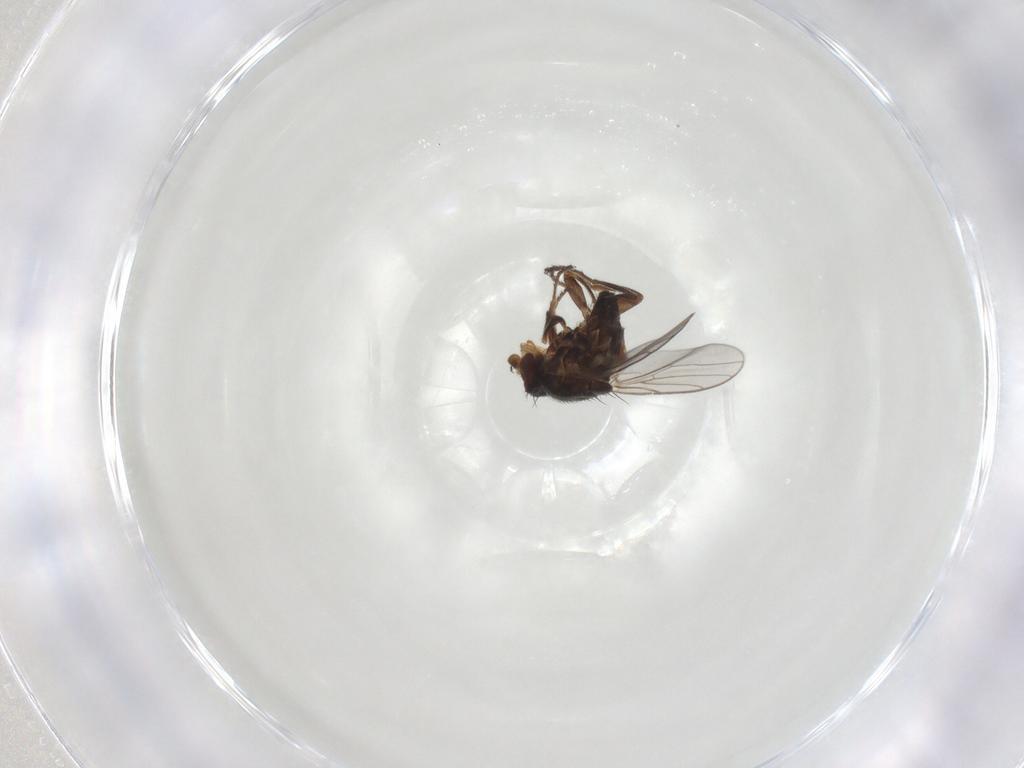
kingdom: Animalia
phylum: Arthropoda
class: Insecta
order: Diptera
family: Chloropidae
